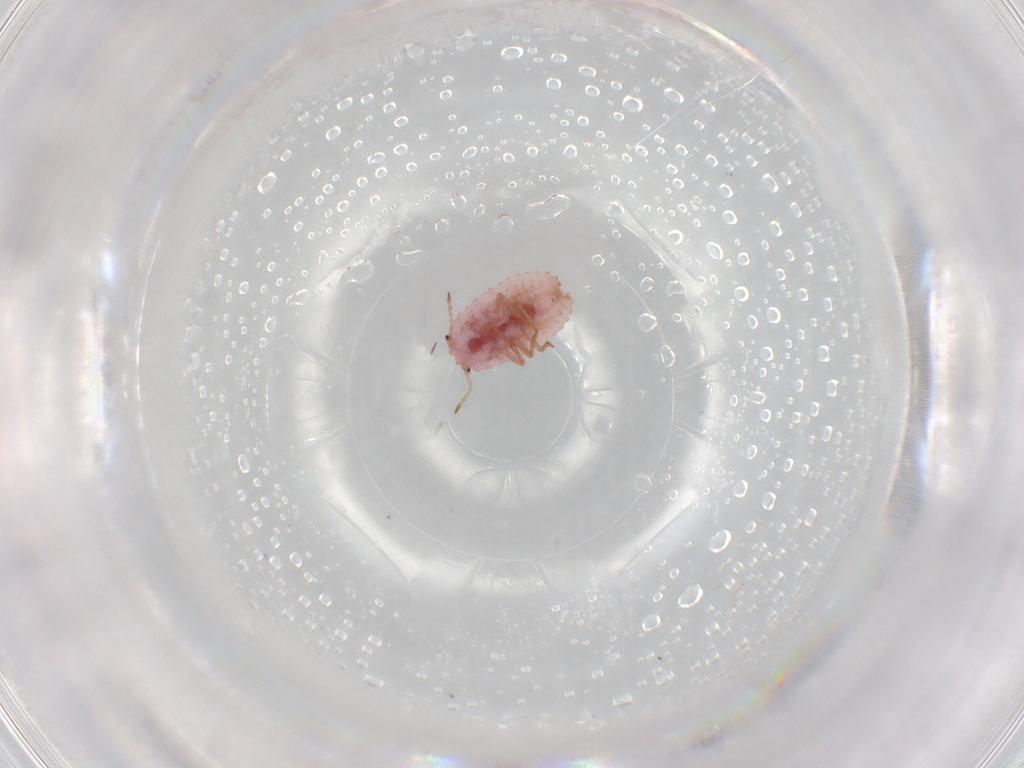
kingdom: Animalia
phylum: Arthropoda
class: Insecta
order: Hemiptera
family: Coccoidea_incertae_sedis
